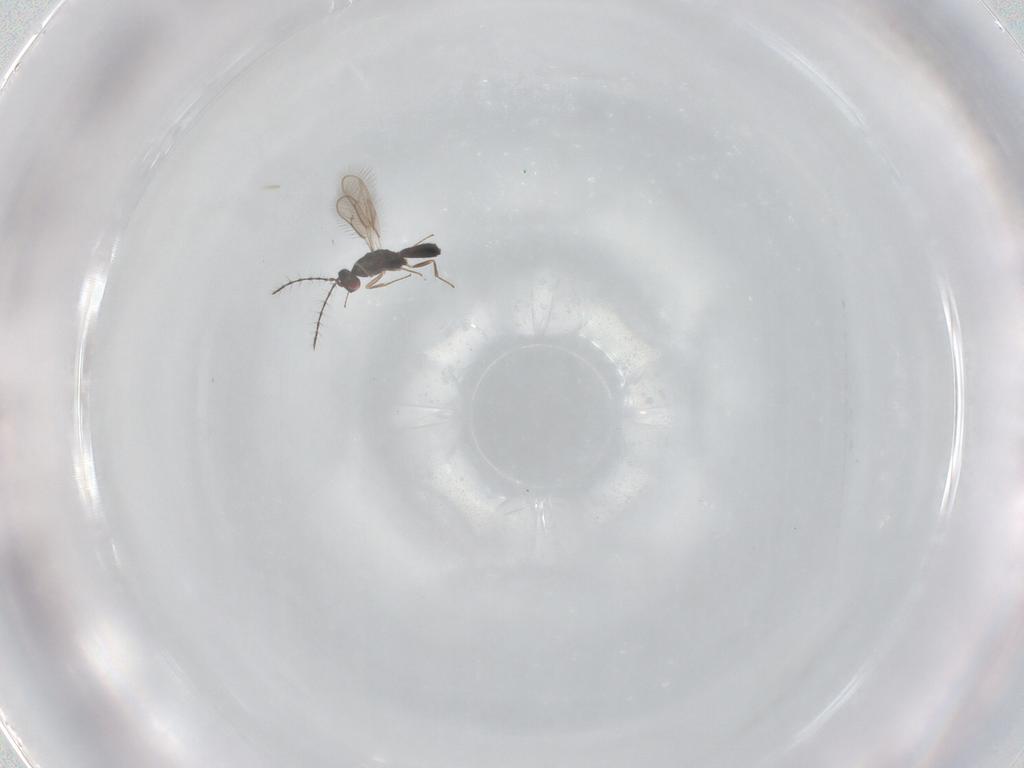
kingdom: Animalia
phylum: Arthropoda
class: Insecta
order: Hymenoptera
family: Pteromalidae
